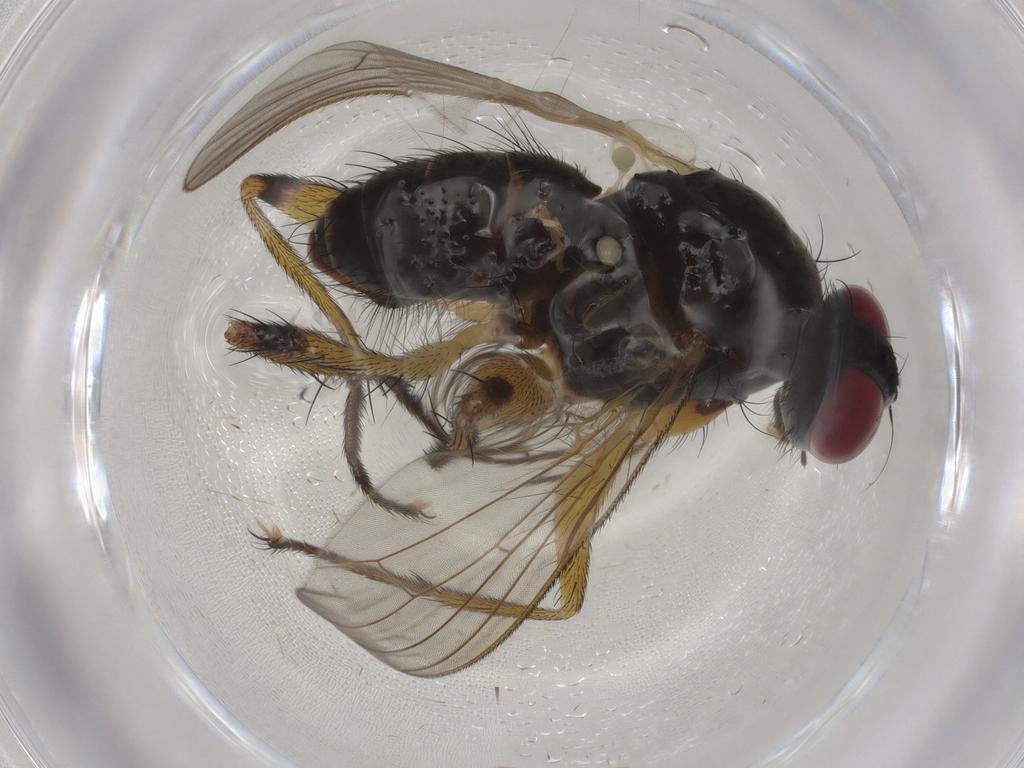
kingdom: Animalia
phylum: Arthropoda
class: Insecta
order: Diptera
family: Muscidae
